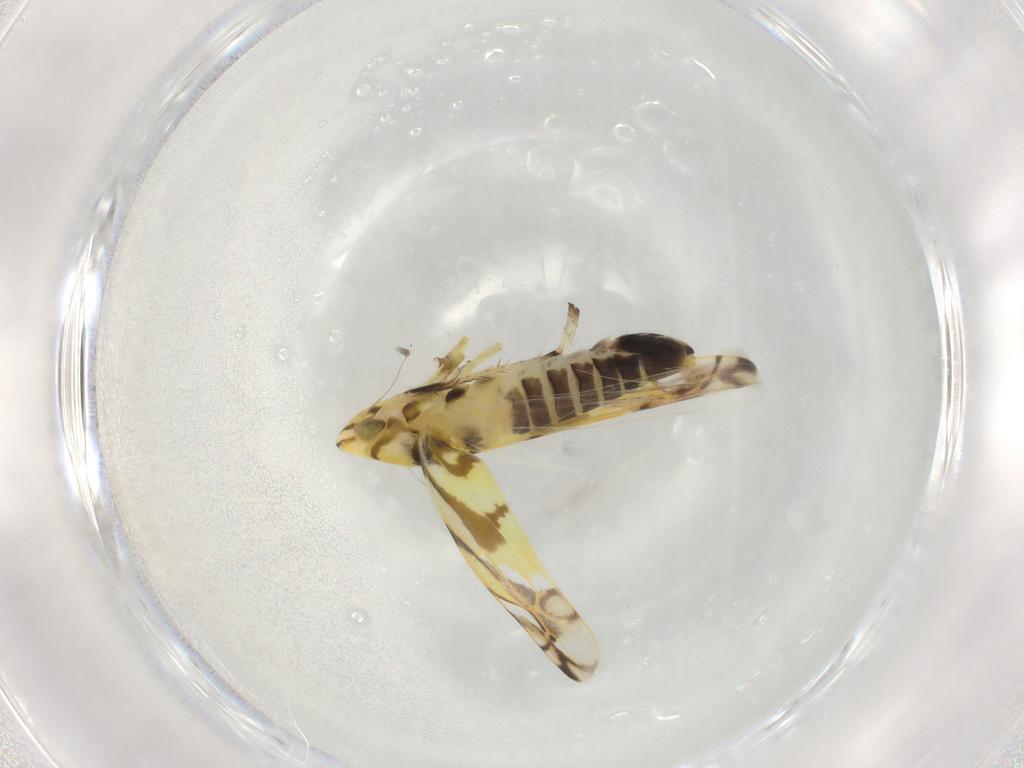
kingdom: Animalia
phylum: Arthropoda
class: Insecta
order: Hemiptera
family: Cicadellidae
